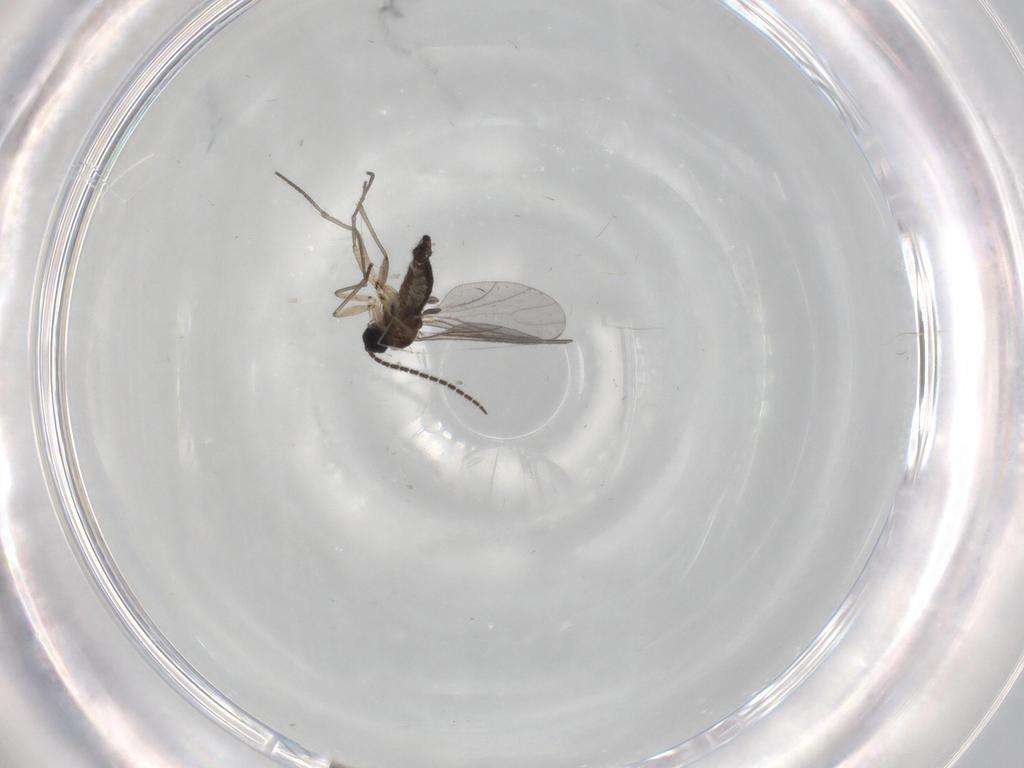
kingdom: Animalia
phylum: Arthropoda
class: Insecta
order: Diptera
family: Sciaridae
